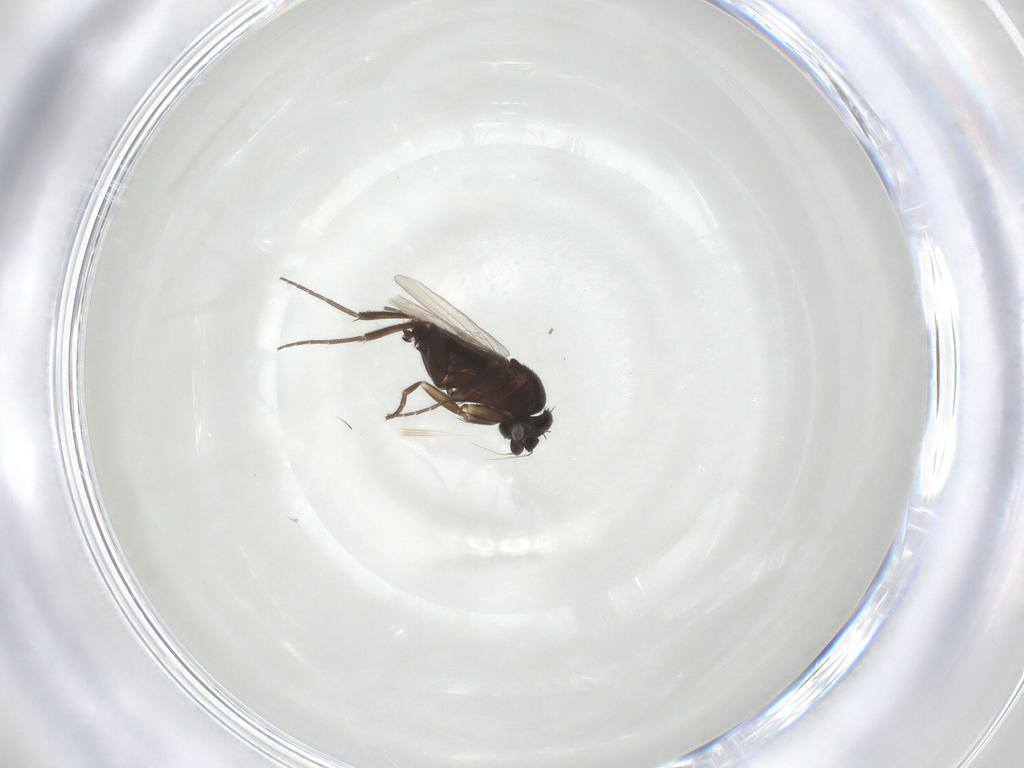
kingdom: Animalia
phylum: Arthropoda
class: Insecta
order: Diptera
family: Phoridae
